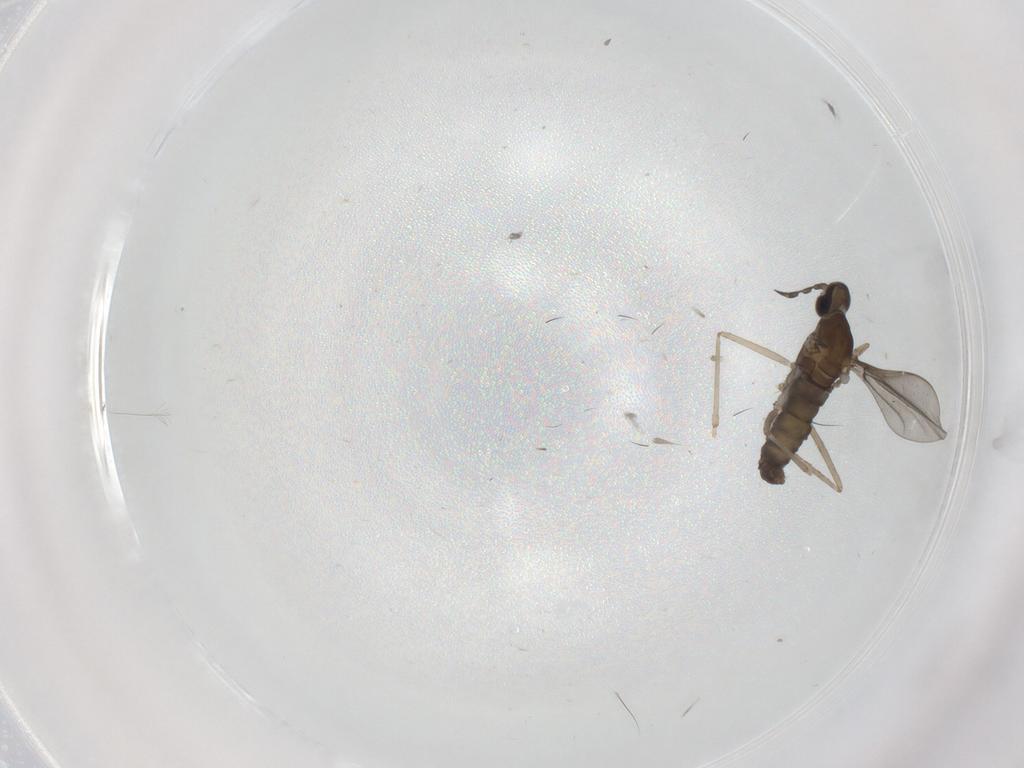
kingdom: Animalia
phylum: Arthropoda
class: Insecta
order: Diptera
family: Cecidomyiidae
